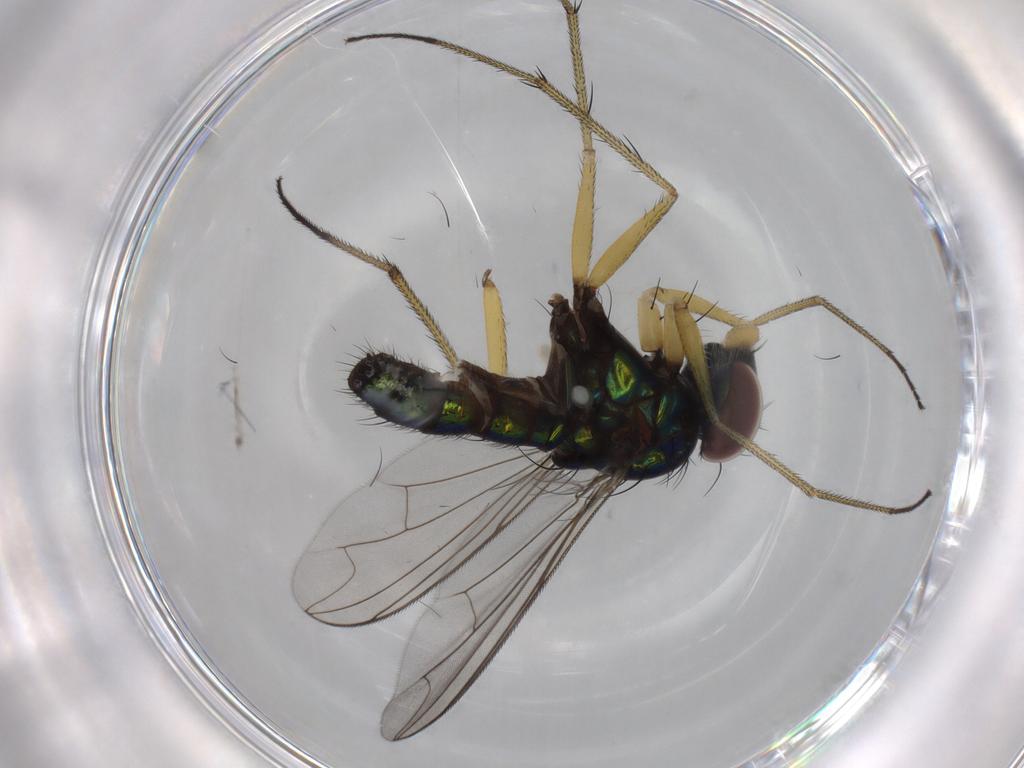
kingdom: Animalia
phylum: Arthropoda
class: Insecta
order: Diptera
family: Dolichopodidae
